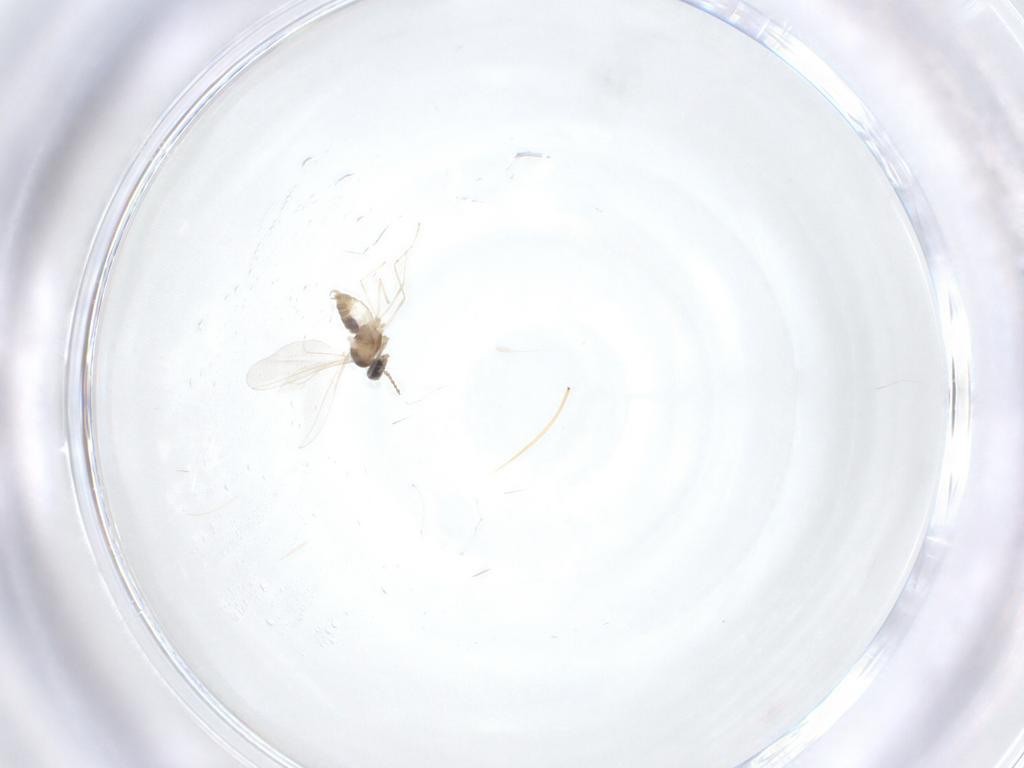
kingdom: Animalia
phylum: Arthropoda
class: Insecta
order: Diptera
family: Cecidomyiidae
